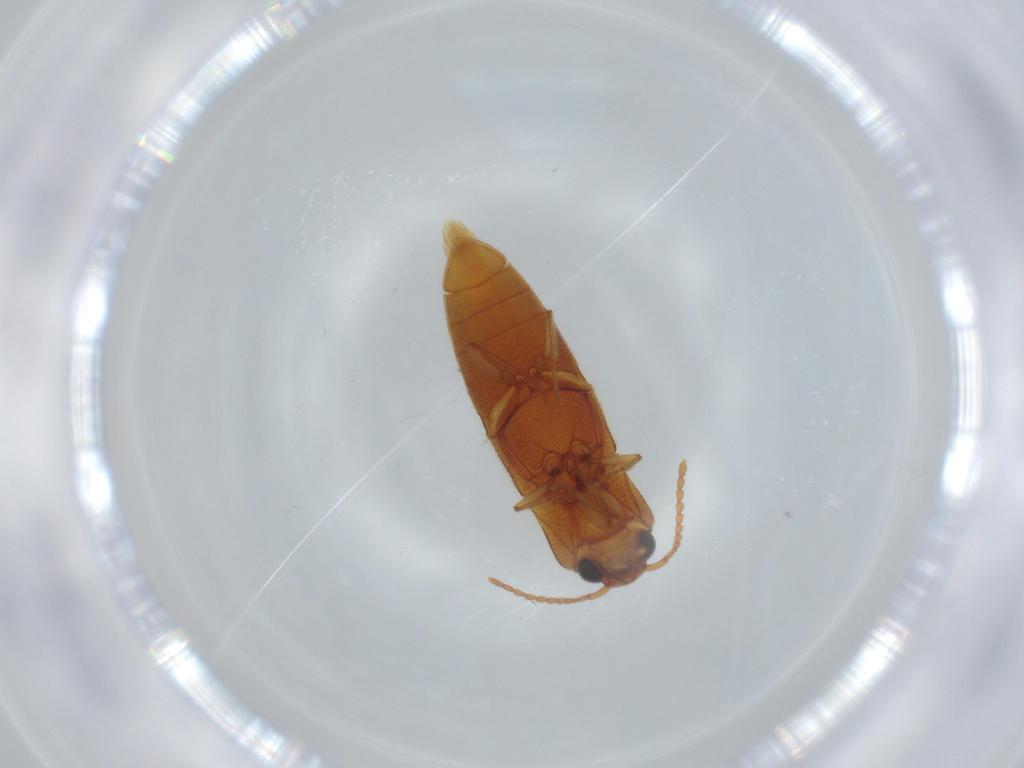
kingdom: Animalia
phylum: Arthropoda
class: Insecta
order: Coleoptera
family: Elateridae
